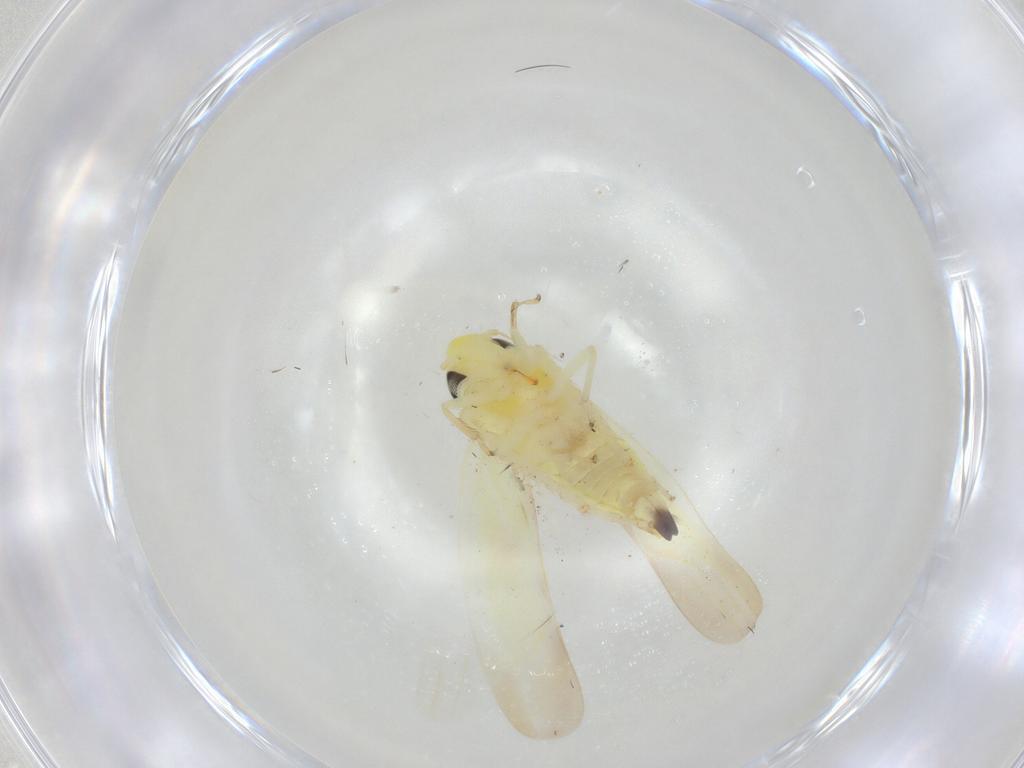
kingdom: Animalia
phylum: Arthropoda
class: Insecta
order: Hemiptera
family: Cicadellidae
